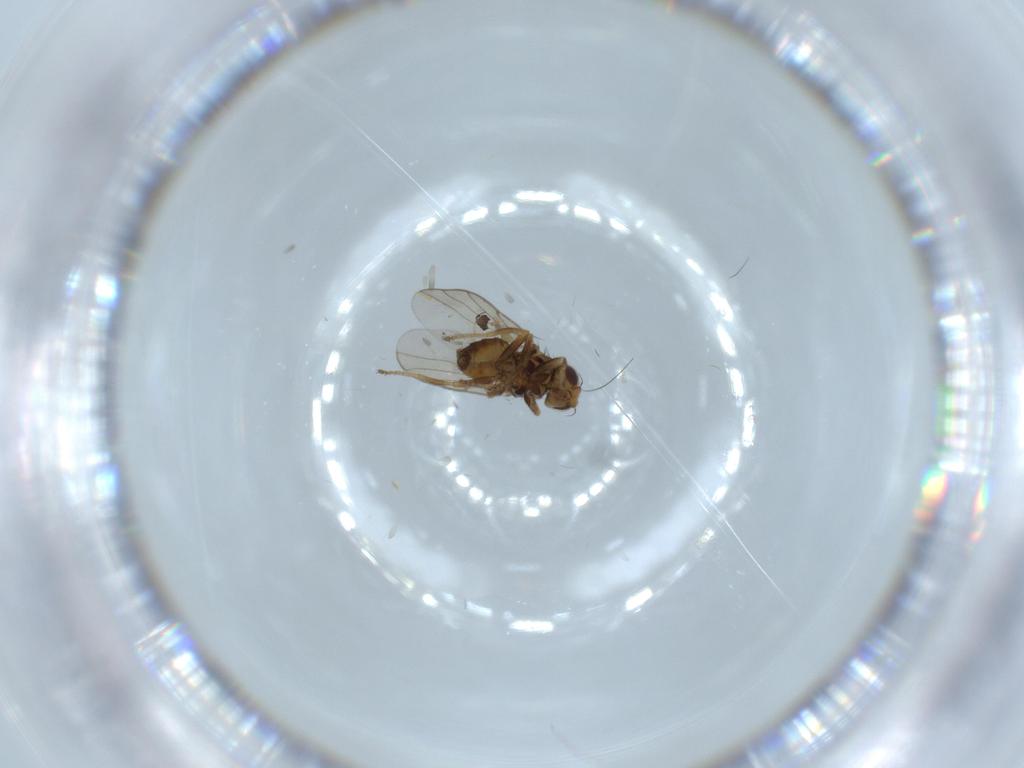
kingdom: Animalia
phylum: Arthropoda
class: Insecta
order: Diptera
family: Chloropidae
